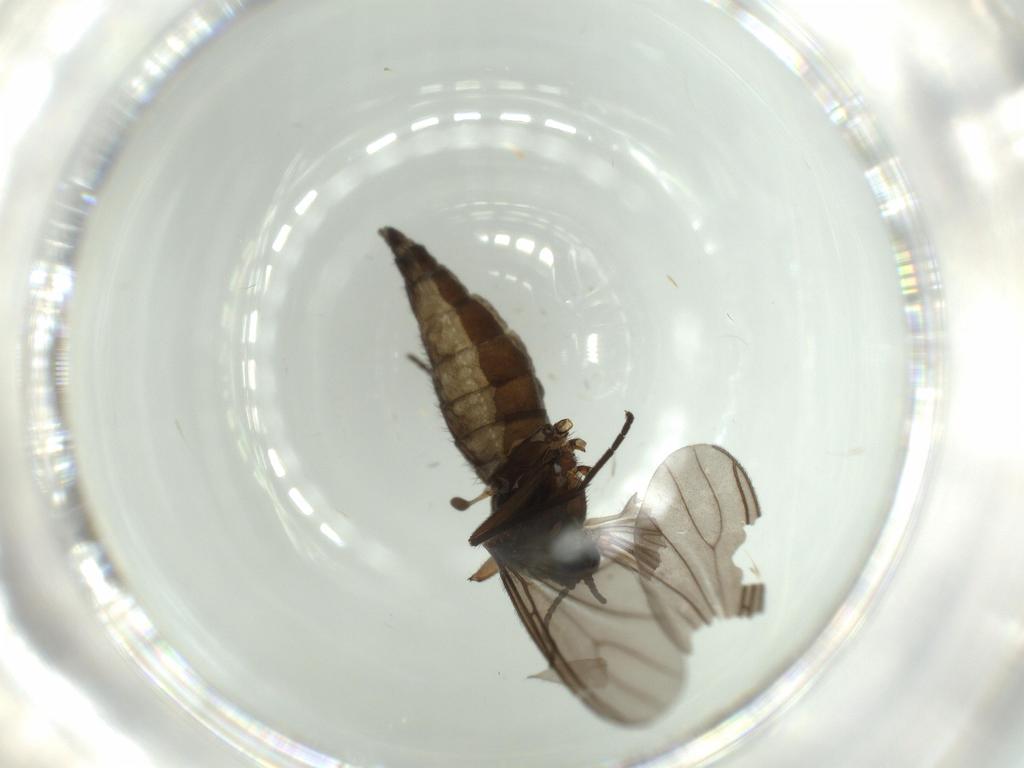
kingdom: Animalia
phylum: Arthropoda
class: Insecta
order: Diptera
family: Sciaridae
